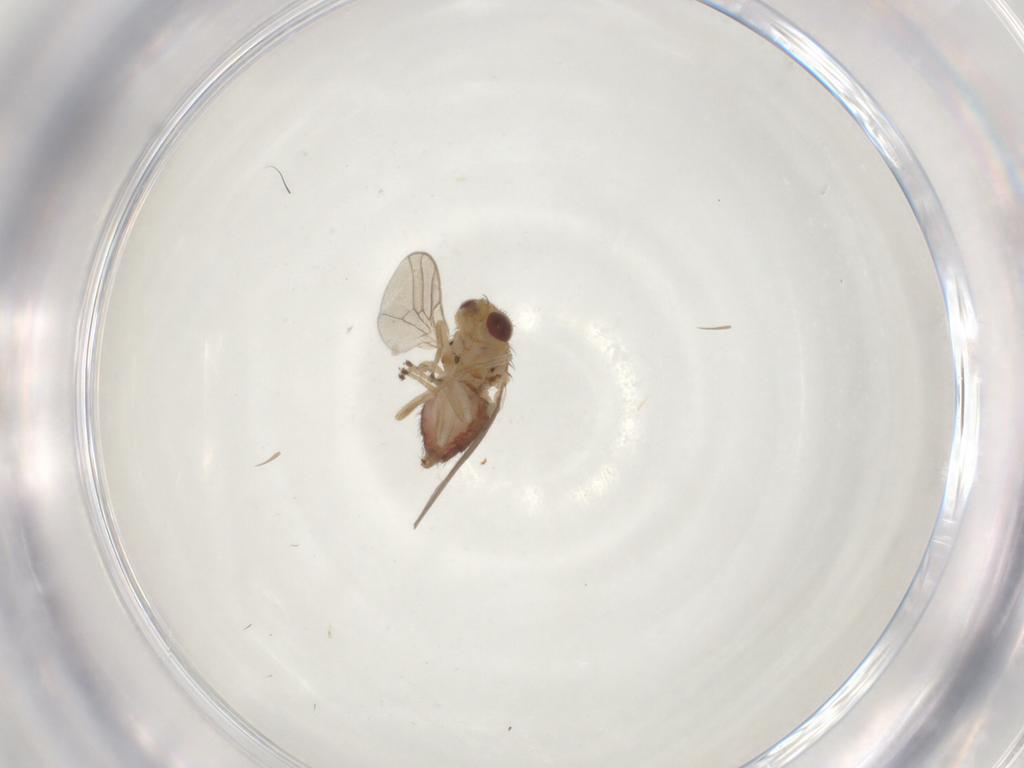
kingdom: Animalia
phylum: Arthropoda
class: Insecta
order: Diptera
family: Chloropidae
